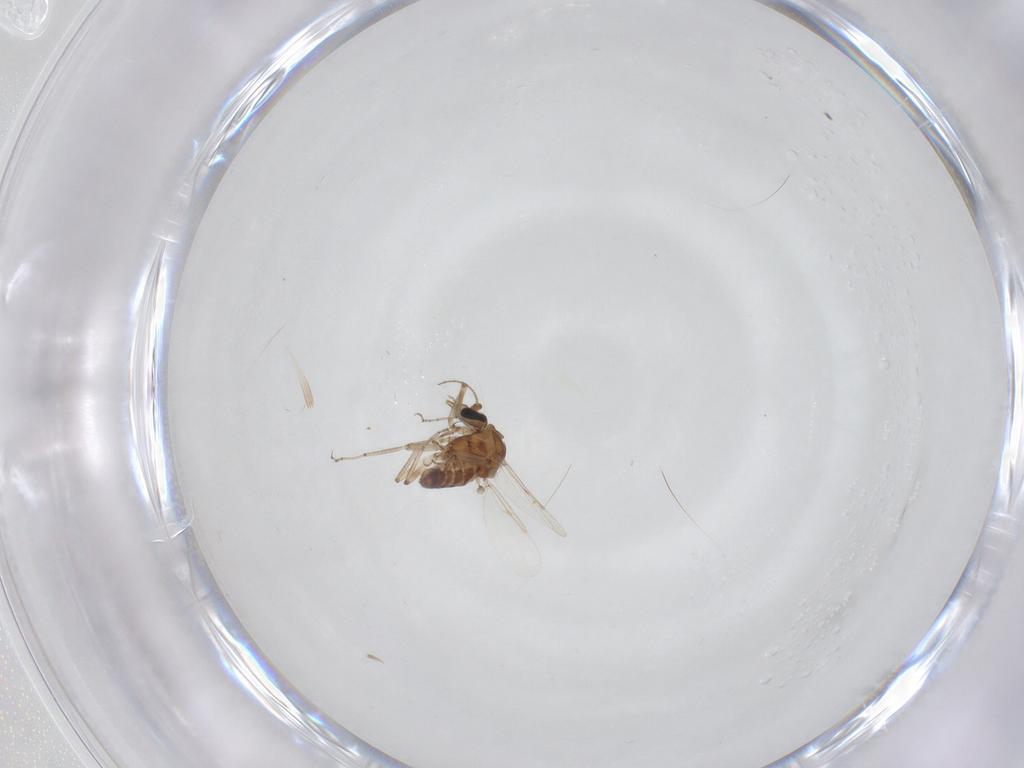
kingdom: Animalia
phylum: Arthropoda
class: Insecta
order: Diptera
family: Ceratopogonidae
